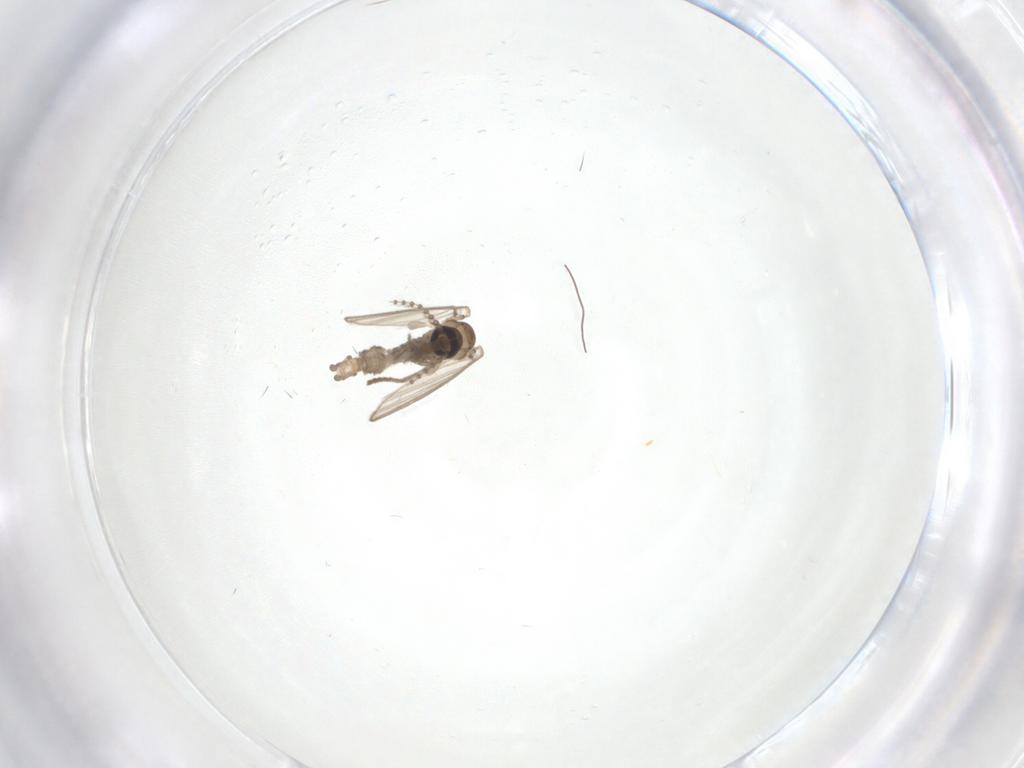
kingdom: Animalia
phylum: Arthropoda
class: Insecta
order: Diptera
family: Psychodidae
